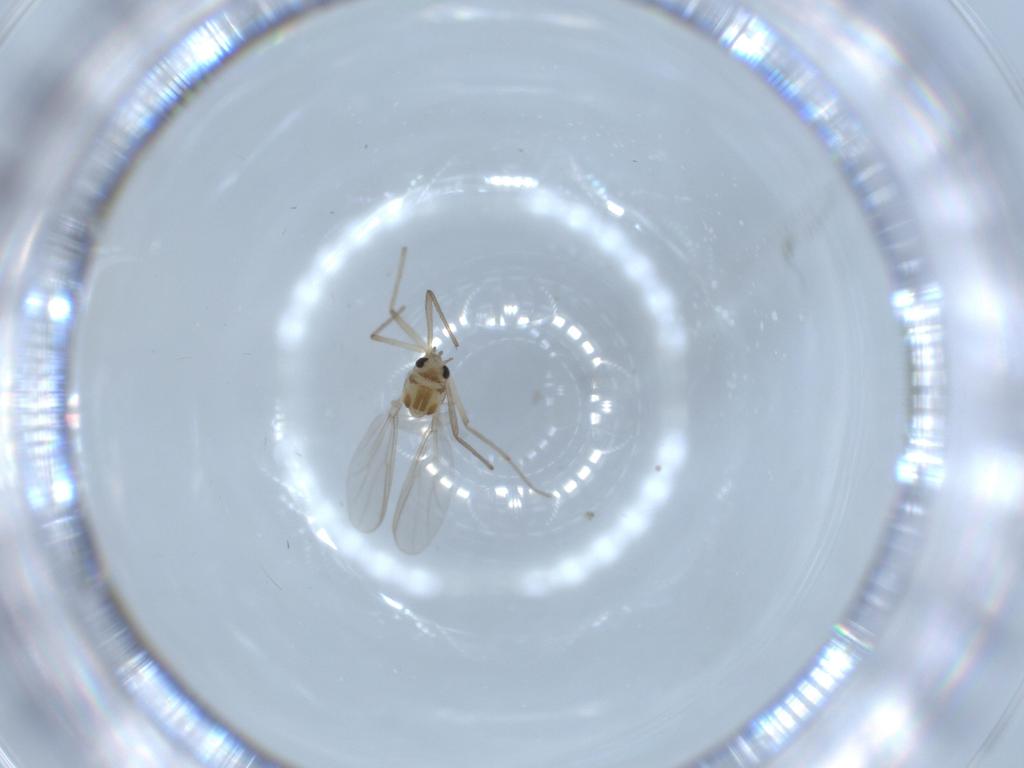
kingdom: Animalia
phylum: Arthropoda
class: Insecta
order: Diptera
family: Chironomidae
